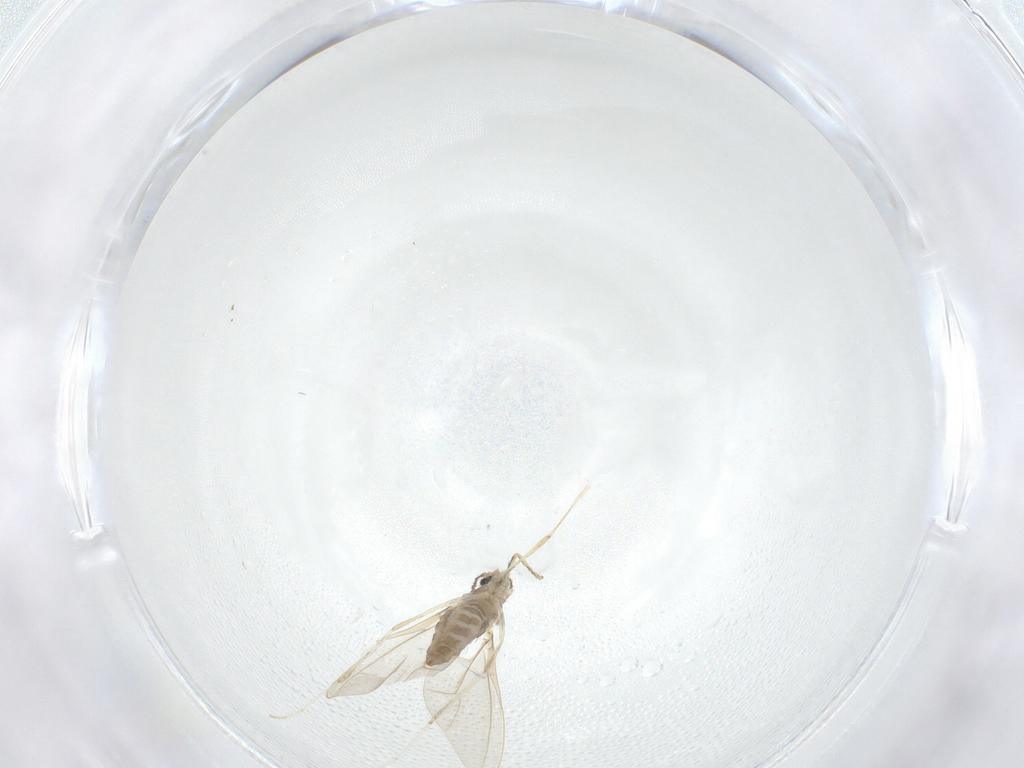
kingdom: Animalia
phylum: Arthropoda
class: Insecta
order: Diptera
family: Cecidomyiidae
